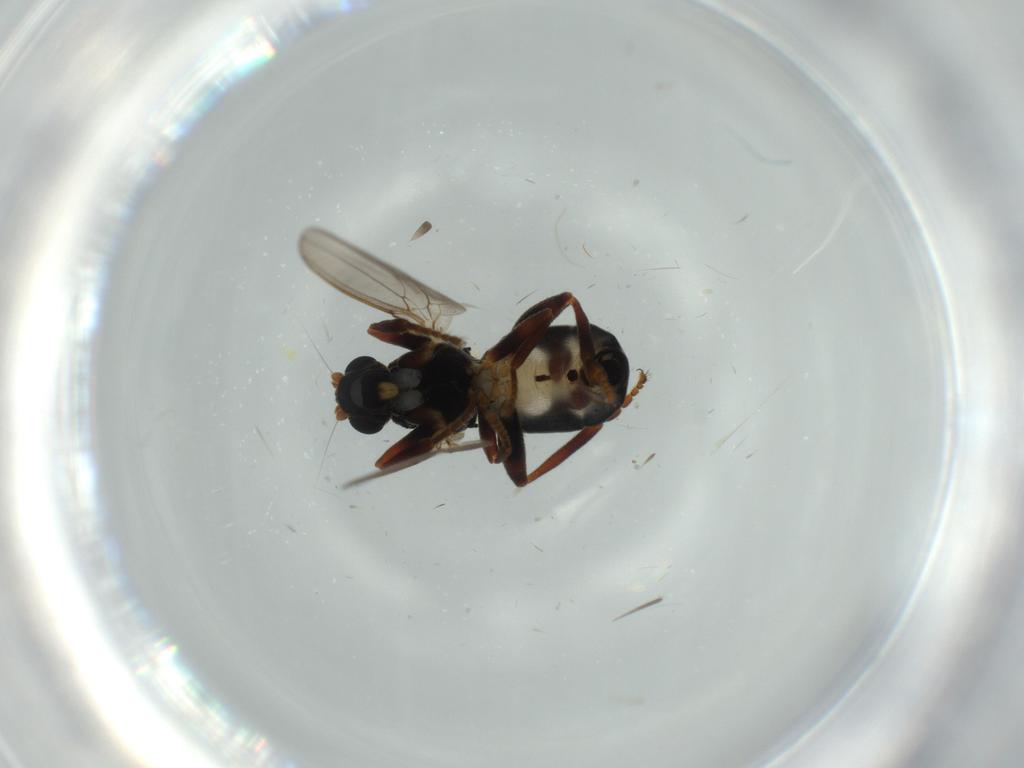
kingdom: Animalia
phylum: Arthropoda
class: Insecta
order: Diptera
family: Sphaeroceridae
